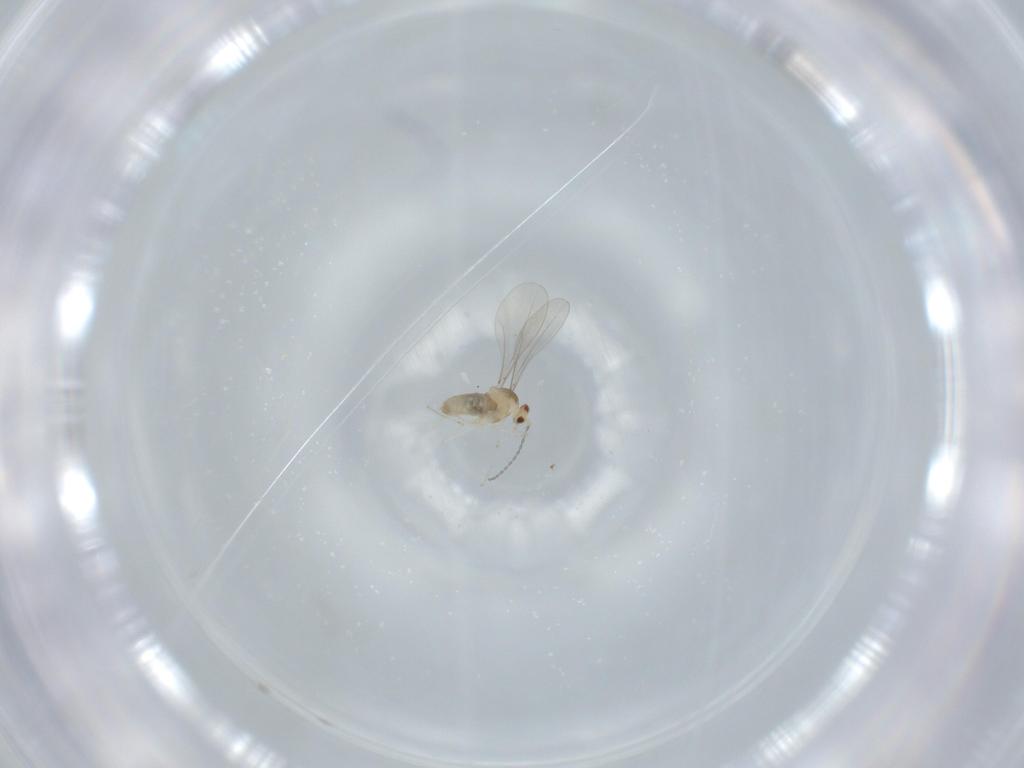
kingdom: Animalia
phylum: Arthropoda
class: Insecta
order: Diptera
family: Cecidomyiidae
